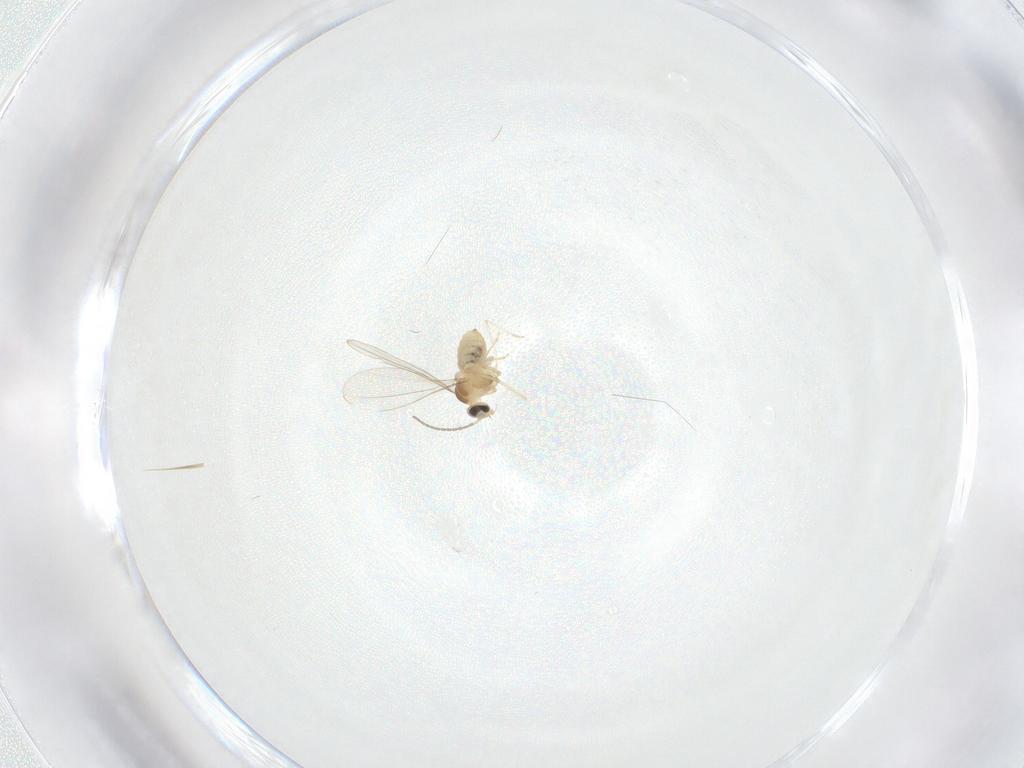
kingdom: Animalia
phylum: Arthropoda
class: Insecta
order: Diptera
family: Cecidomyiidae
